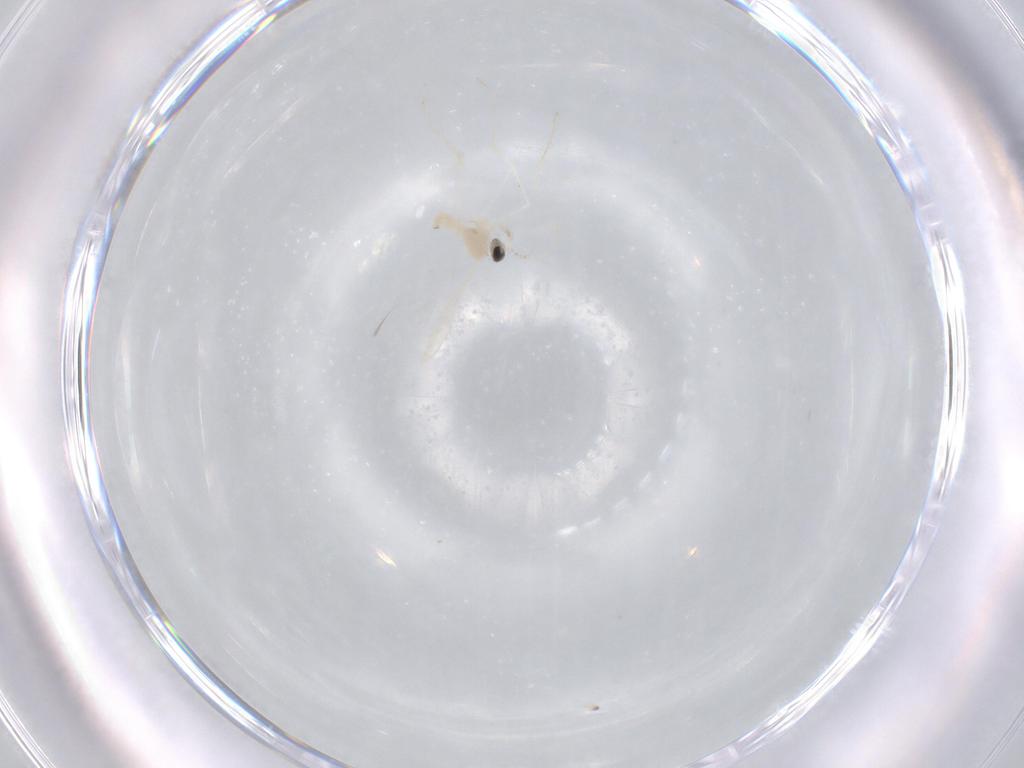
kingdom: Animalia
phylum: Arthropoda
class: Insecta
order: Diptera
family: Cecidomyiidae
